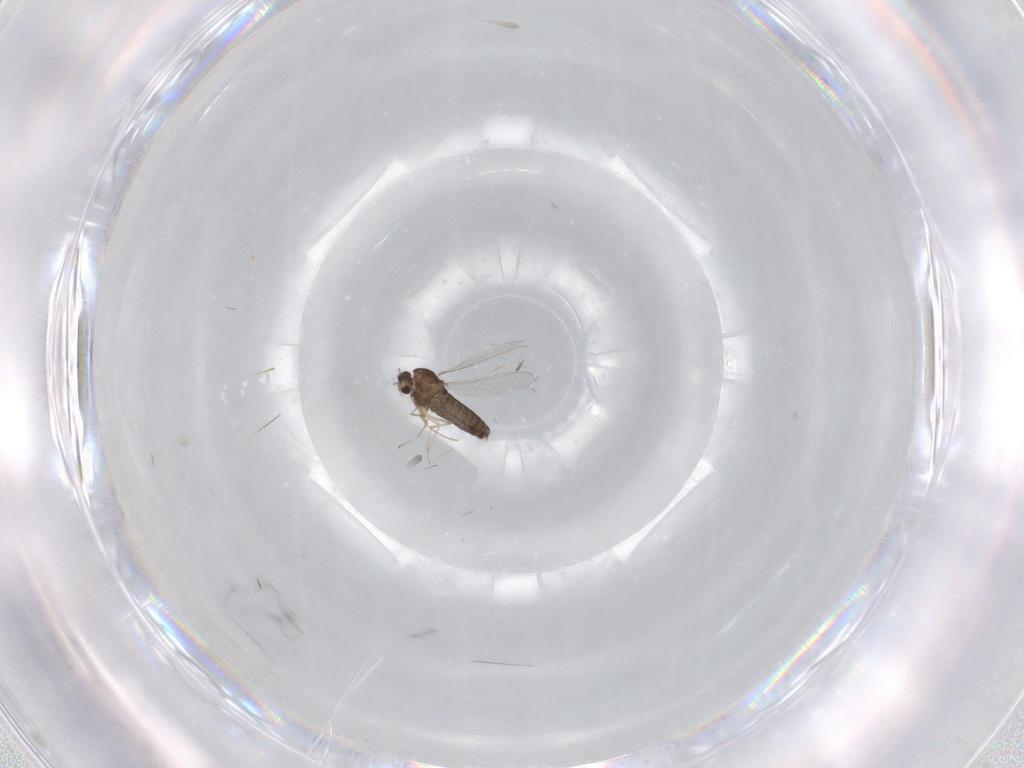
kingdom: Animalia
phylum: Arthropoda
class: Insecta
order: Diptera
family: Chironomidae
